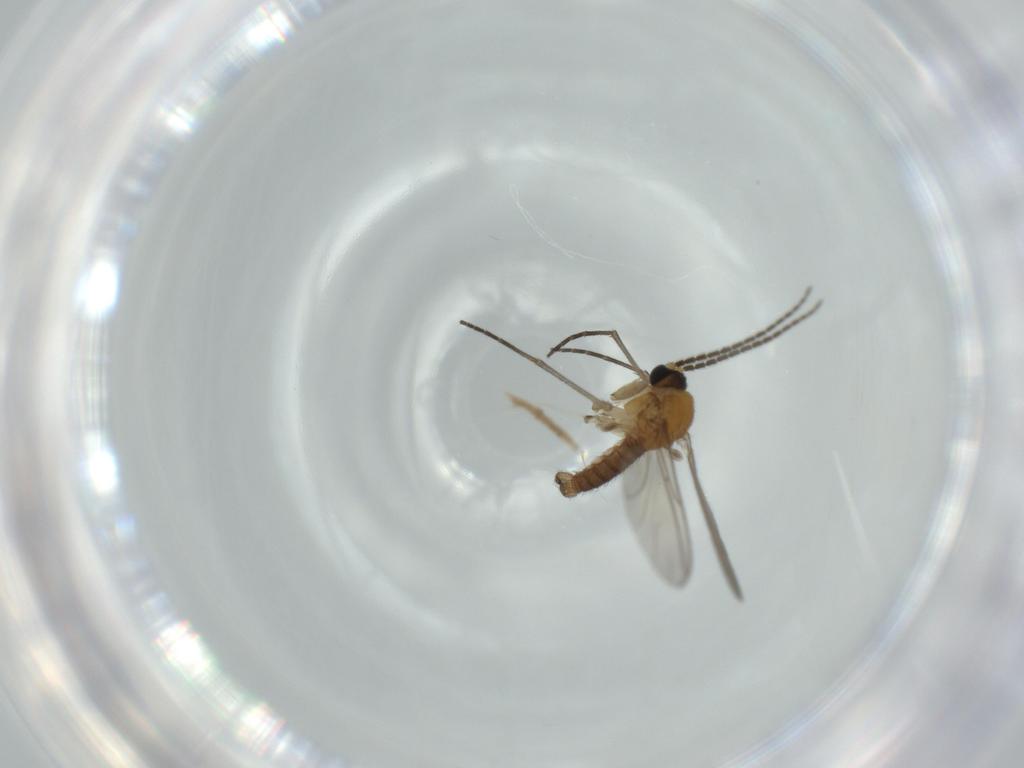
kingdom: Animalia
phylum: Arthropoda
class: Insecta
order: Diptera
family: Sciaridae
